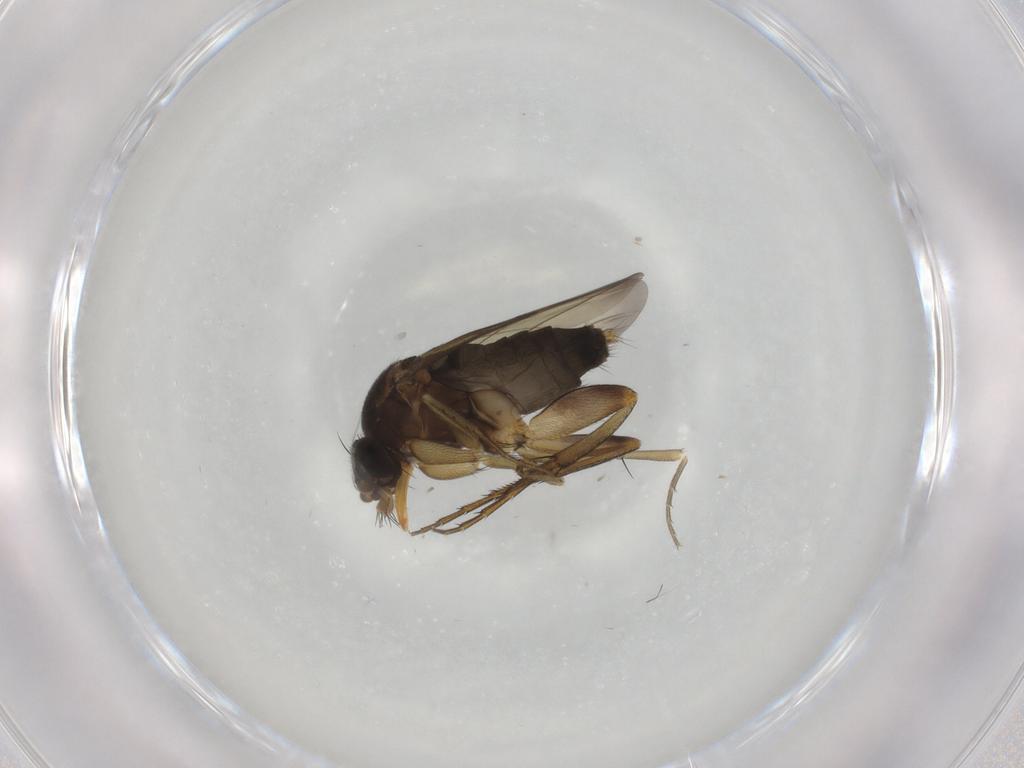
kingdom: Animalia
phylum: Arthropoda
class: Insecta
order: Diptera
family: Phoridae
